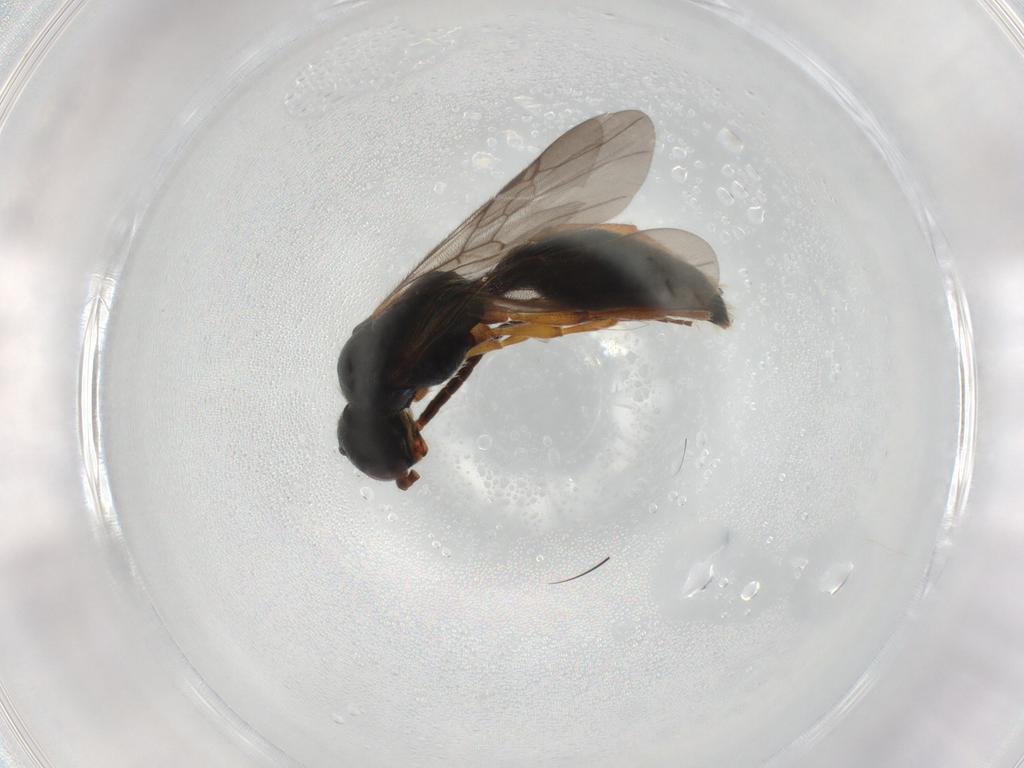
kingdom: Animalia
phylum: Arthropoda
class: Insecta
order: Hymenoptera
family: Mutillidae
